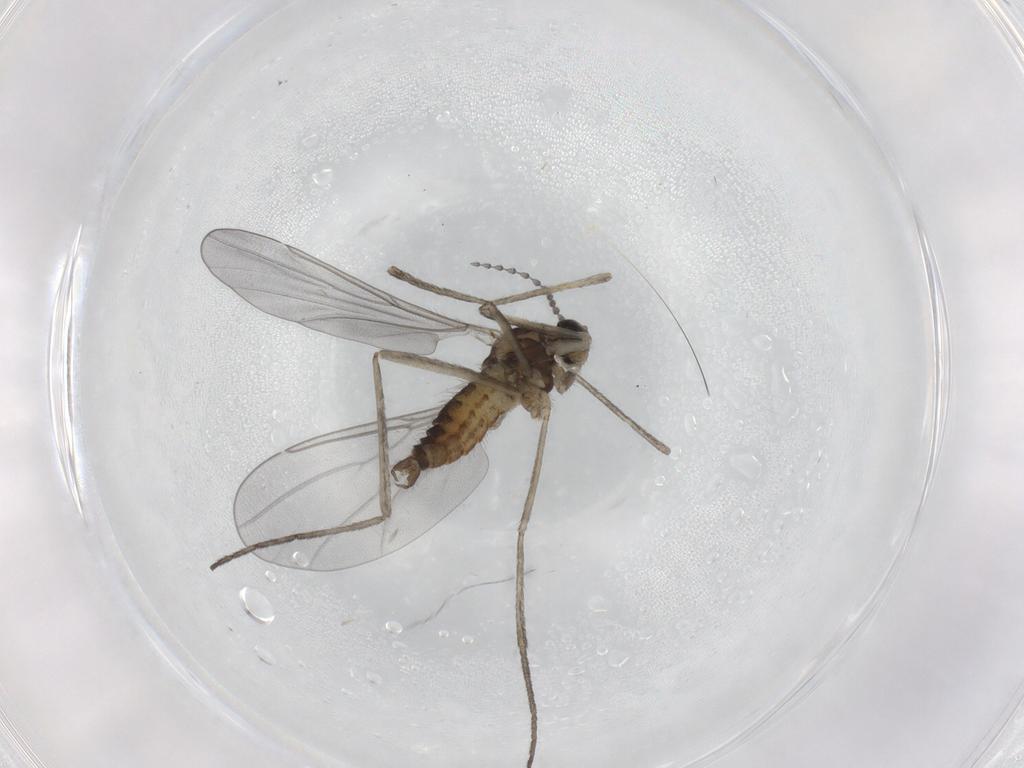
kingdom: Animalia
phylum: Arthropoda
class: Insecta
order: Diptera
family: Cecidomyiidae
